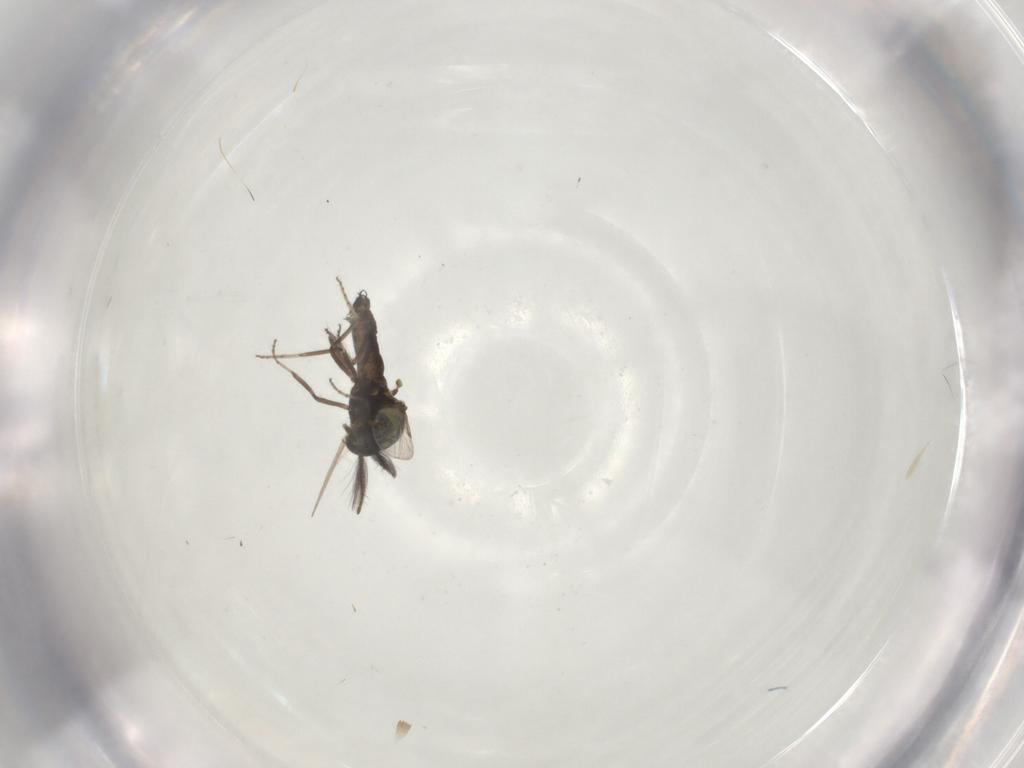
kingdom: Animalia
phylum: Arthropoda
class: Insecta
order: Diptera
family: Ceratopogonidae
